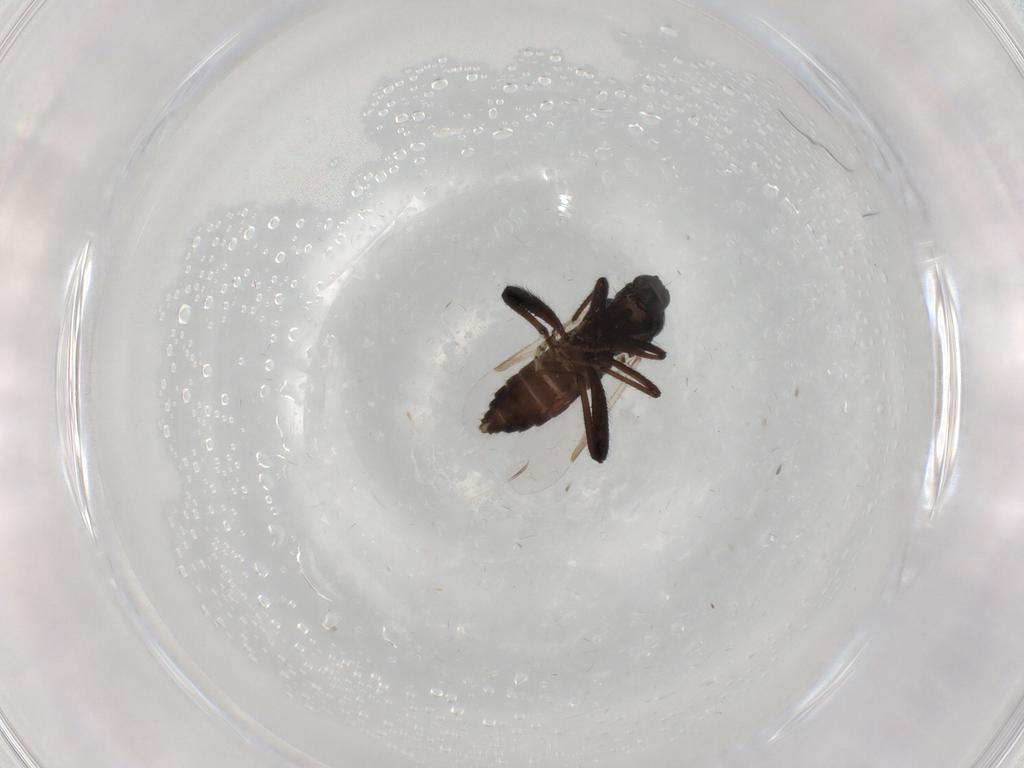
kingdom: Animalia
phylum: Arthropoda
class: Insecta
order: Diptera
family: Ceratopogonidae
